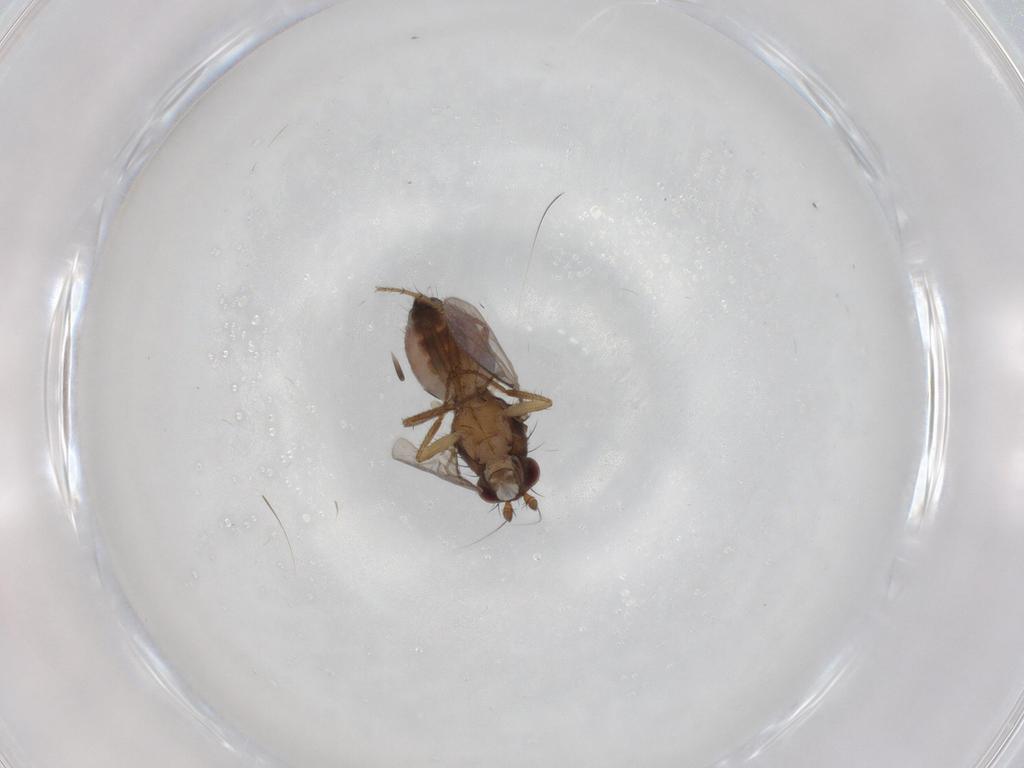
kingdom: Animalia
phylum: Arthropoda
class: Insecta
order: Diptera
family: Sphaeroceridae
